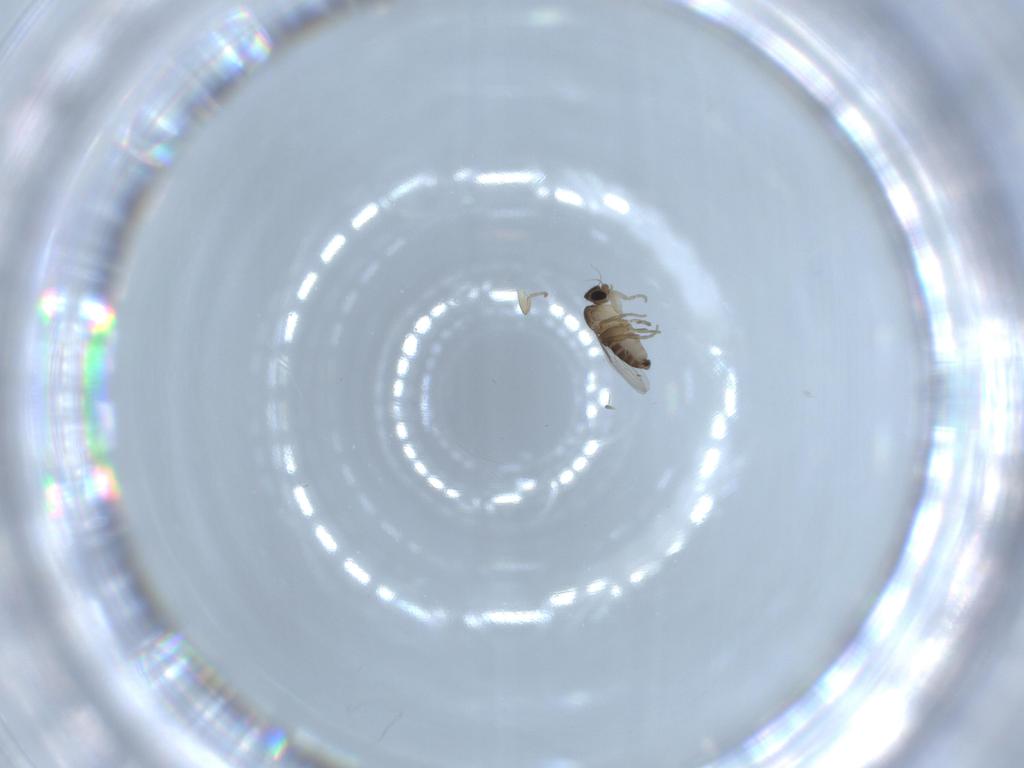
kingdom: Animalia
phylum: Arthropoda
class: Insecta
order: Diptera
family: Phoridae
